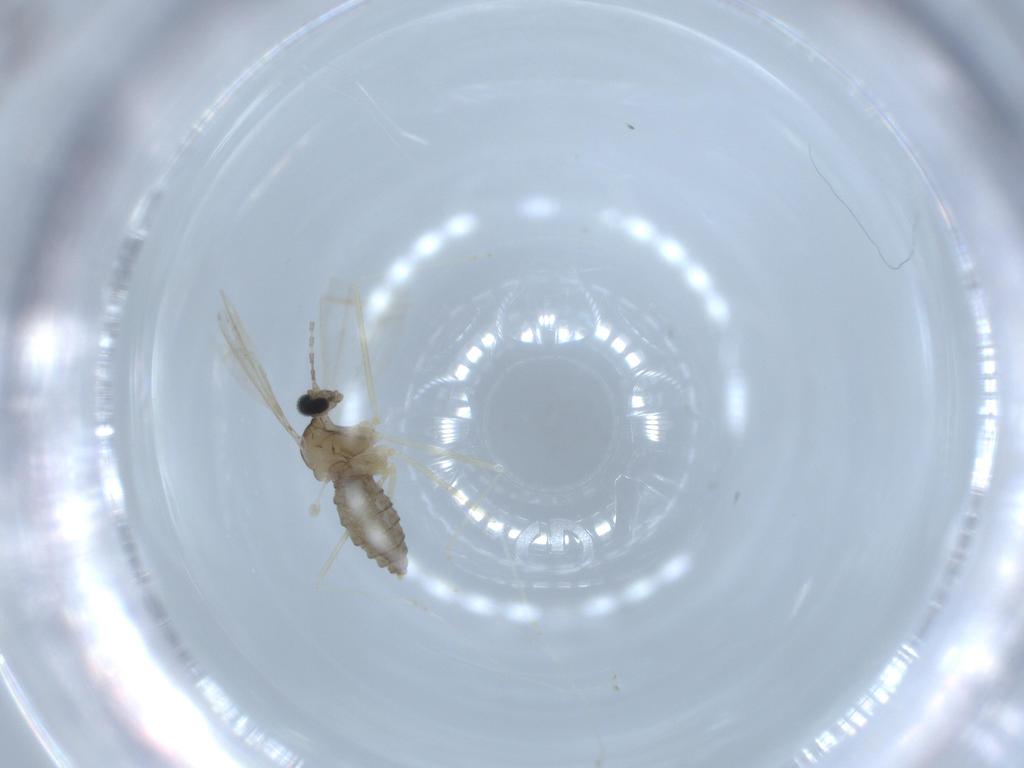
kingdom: Animalia
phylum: Arthropoda
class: Insecta
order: Diptera
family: Cecidomyiidae
